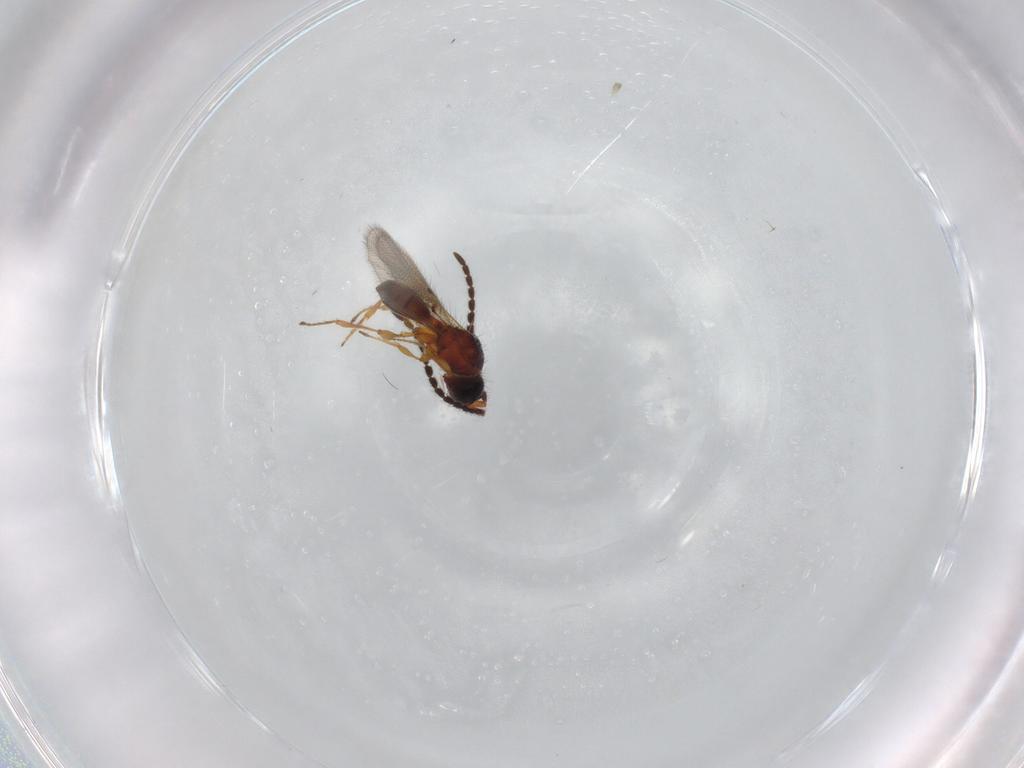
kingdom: Animalia
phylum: Arthropoda
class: Insecta
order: Hymenoptera
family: Diapriidae
